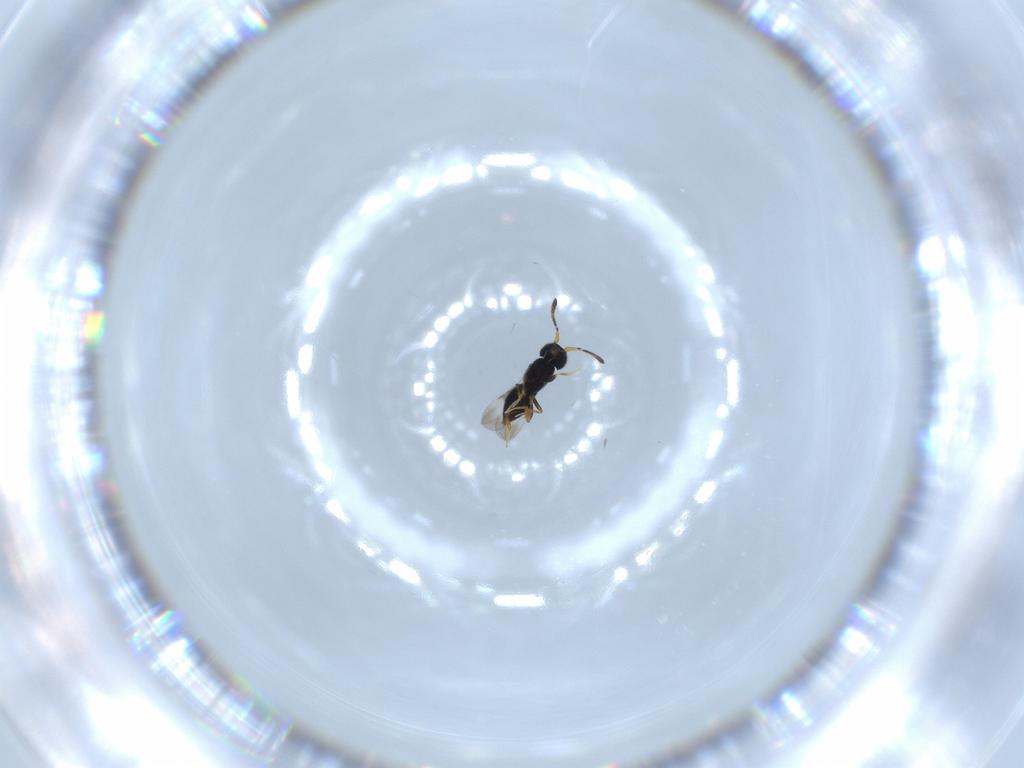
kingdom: Animalia
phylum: Arthropoda
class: Insecta
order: Hymenoptera
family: Ceraphronidae
